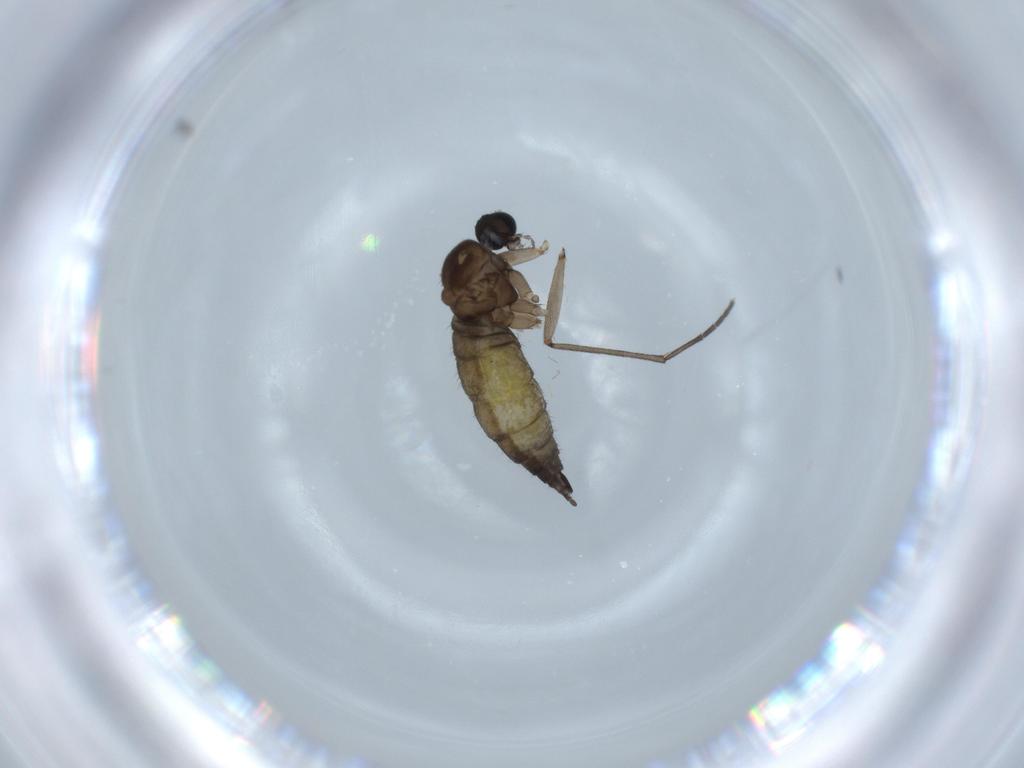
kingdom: Animalia
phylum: Arthropoda
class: Insecta
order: Diptera
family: Sciaridae
